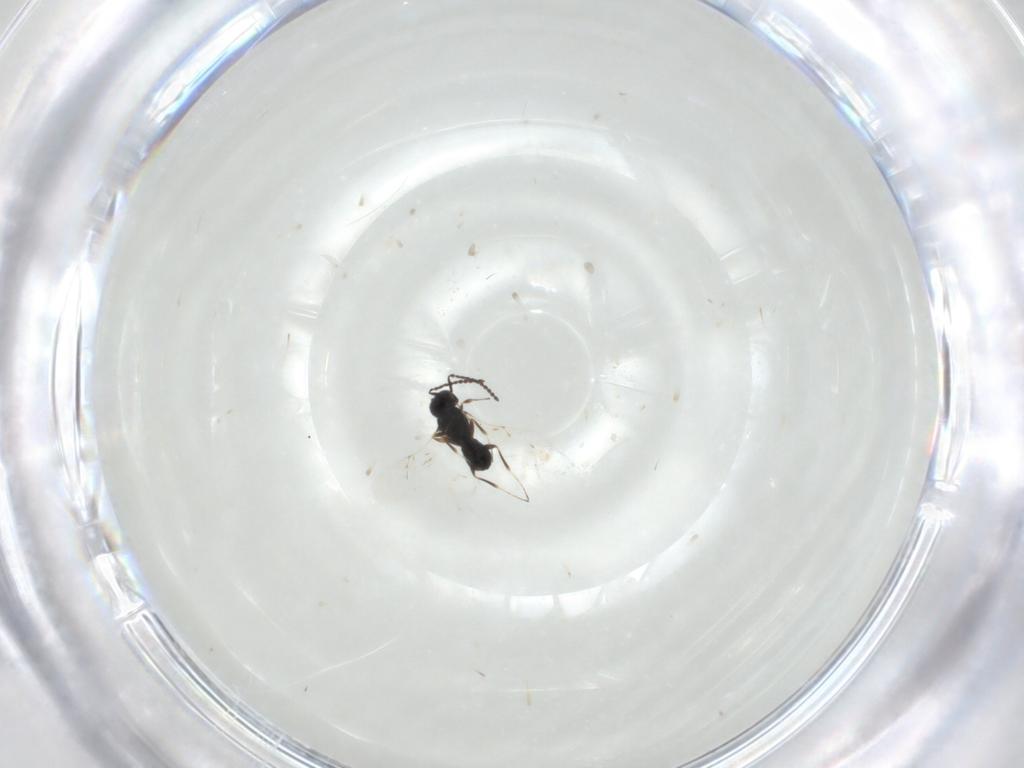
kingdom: Animalia
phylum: Arthropoda
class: Insecta
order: Hymenoptera
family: Scelionidae
